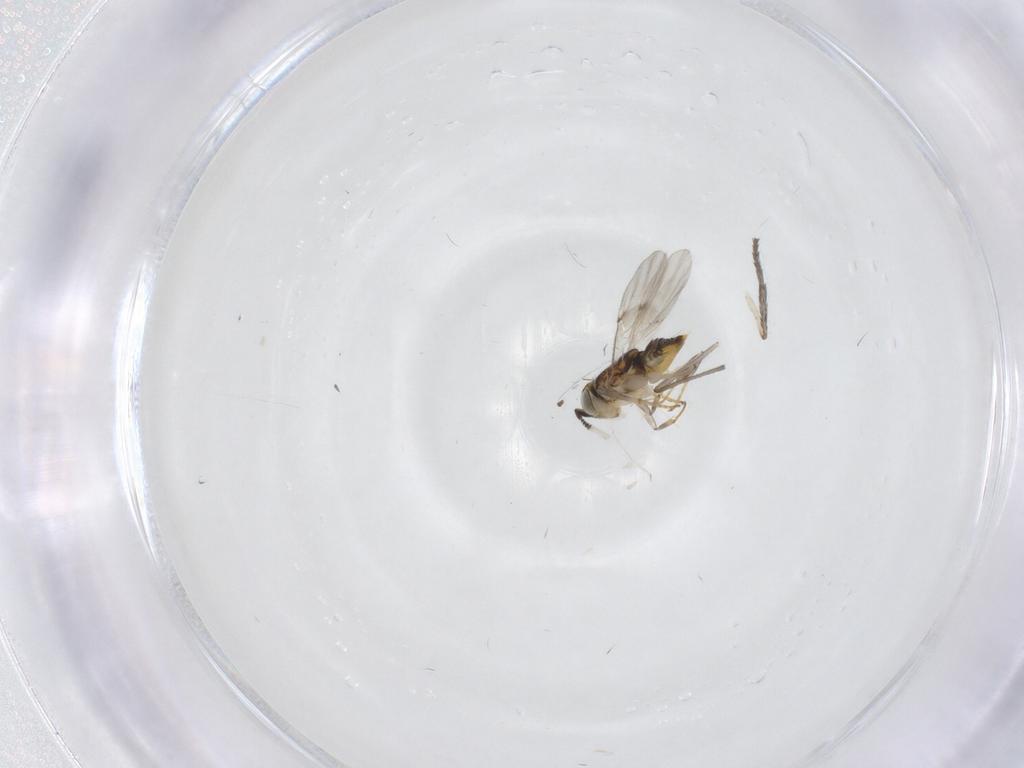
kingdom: Animalia
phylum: Arthropoda
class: Insecta
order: Hymenoptera
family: Encyrtidae
